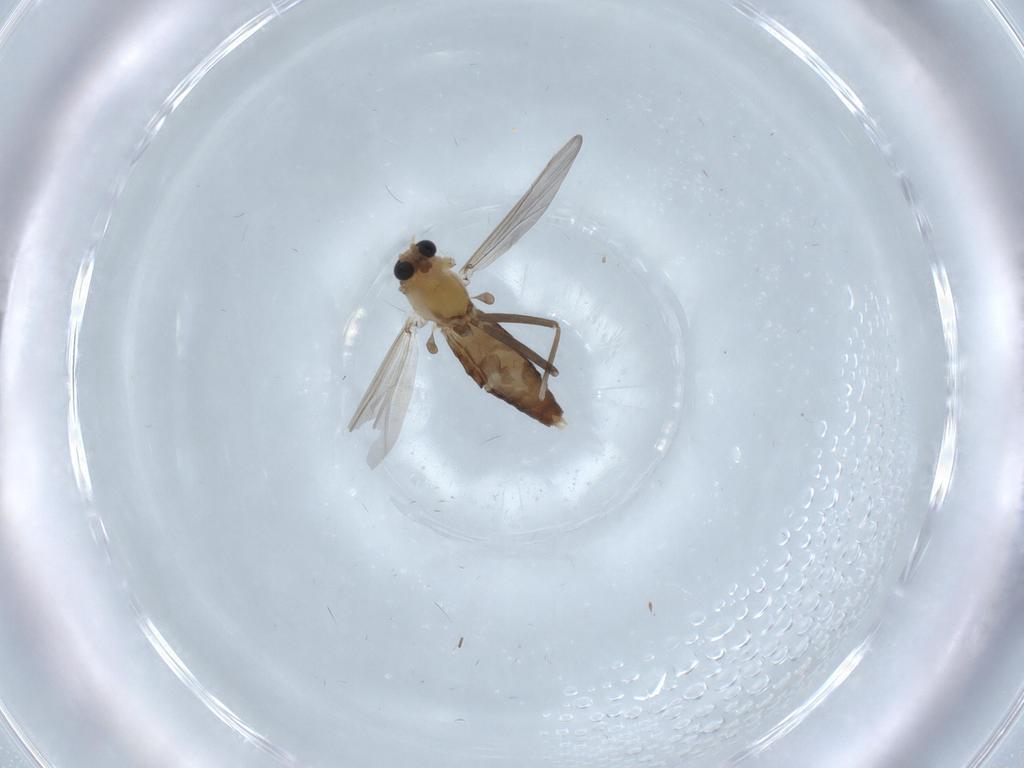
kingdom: Animalia
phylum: Arthropoda
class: Insecta
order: Diptera
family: Chironomidae
